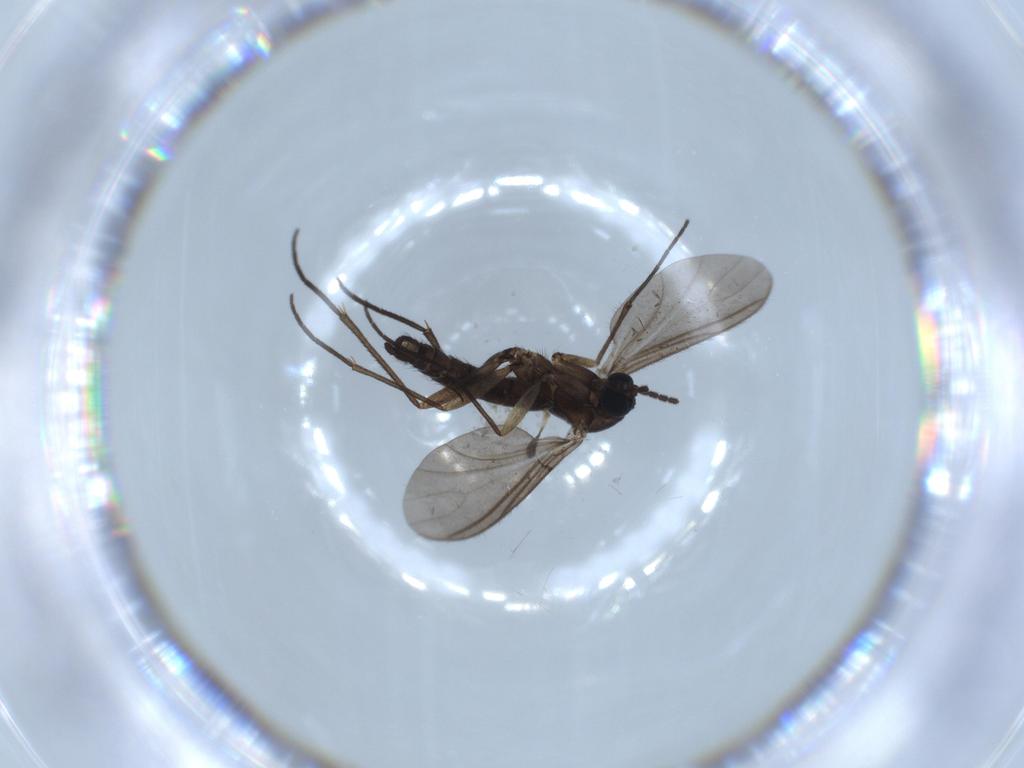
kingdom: Animalia
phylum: Arthropoda
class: Insecta
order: Diptera
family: Sciaridae
